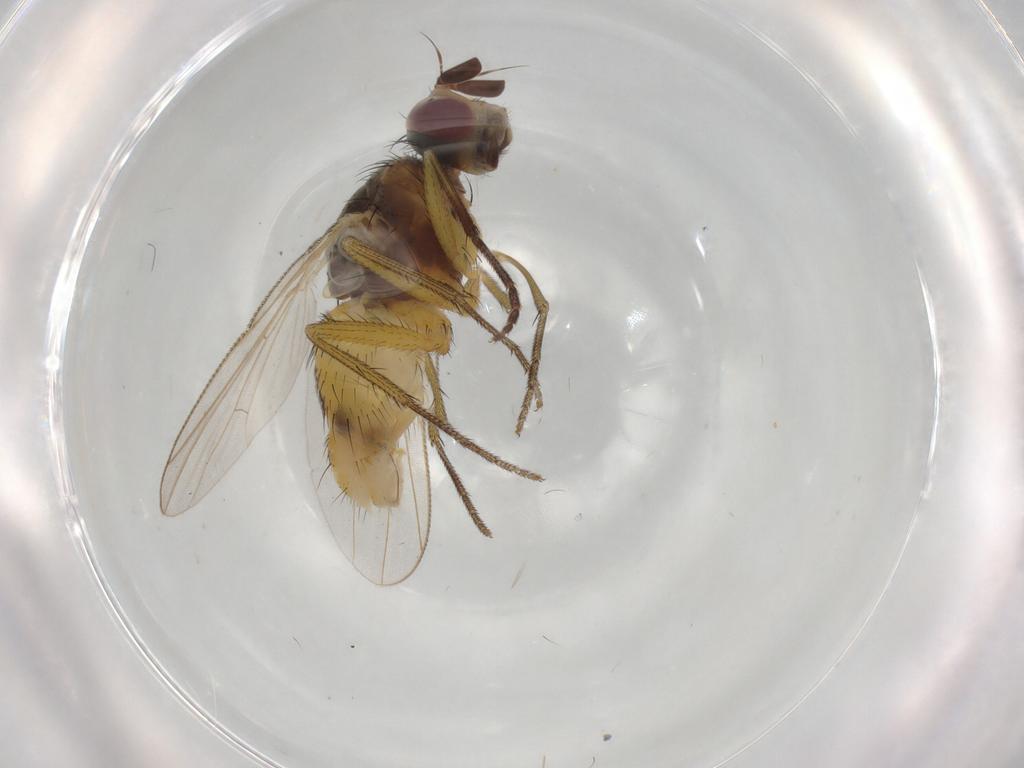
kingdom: Animalia
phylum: Arthropoda
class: Insecta
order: Diptera
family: Muscidae
